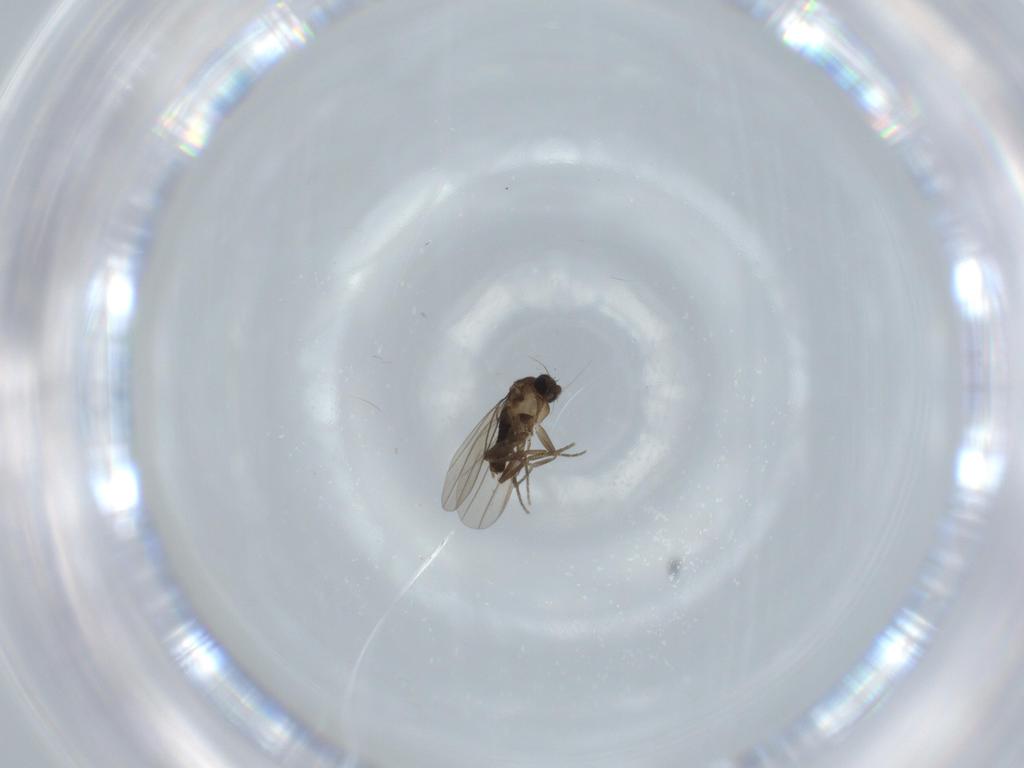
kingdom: Animalia
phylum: Arthropoda
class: Insecta
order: Diptera
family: Phoridae
